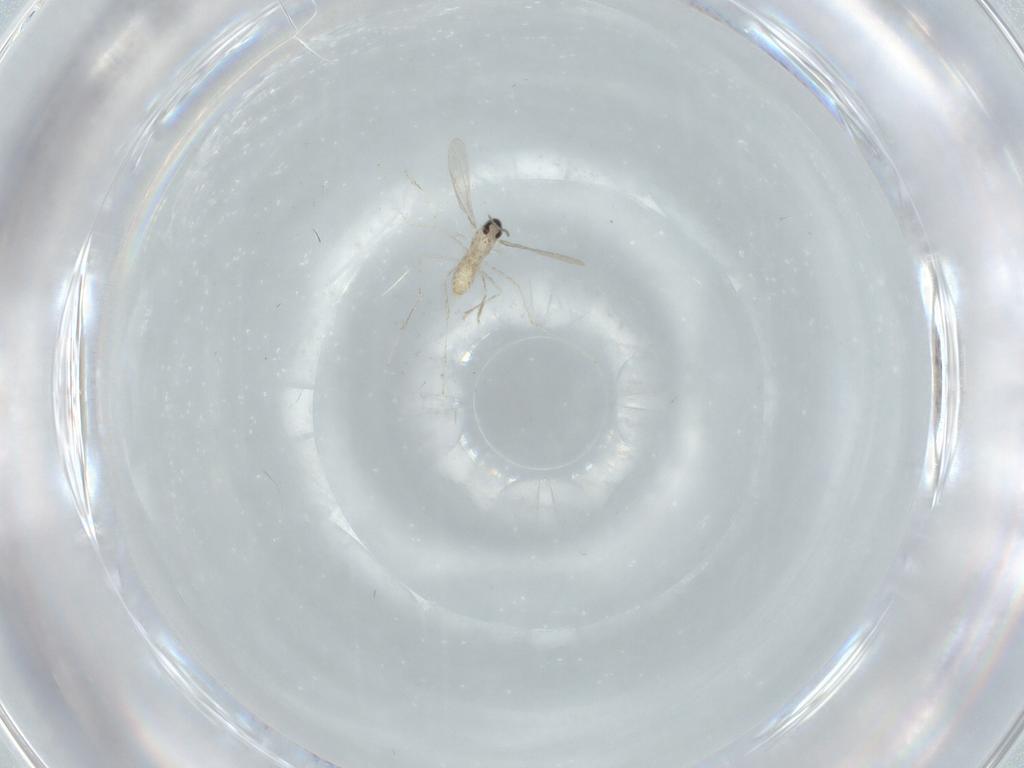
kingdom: Animalia
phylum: Arthropoda
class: Insecta
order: Diptera
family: Cecidomyiidae
